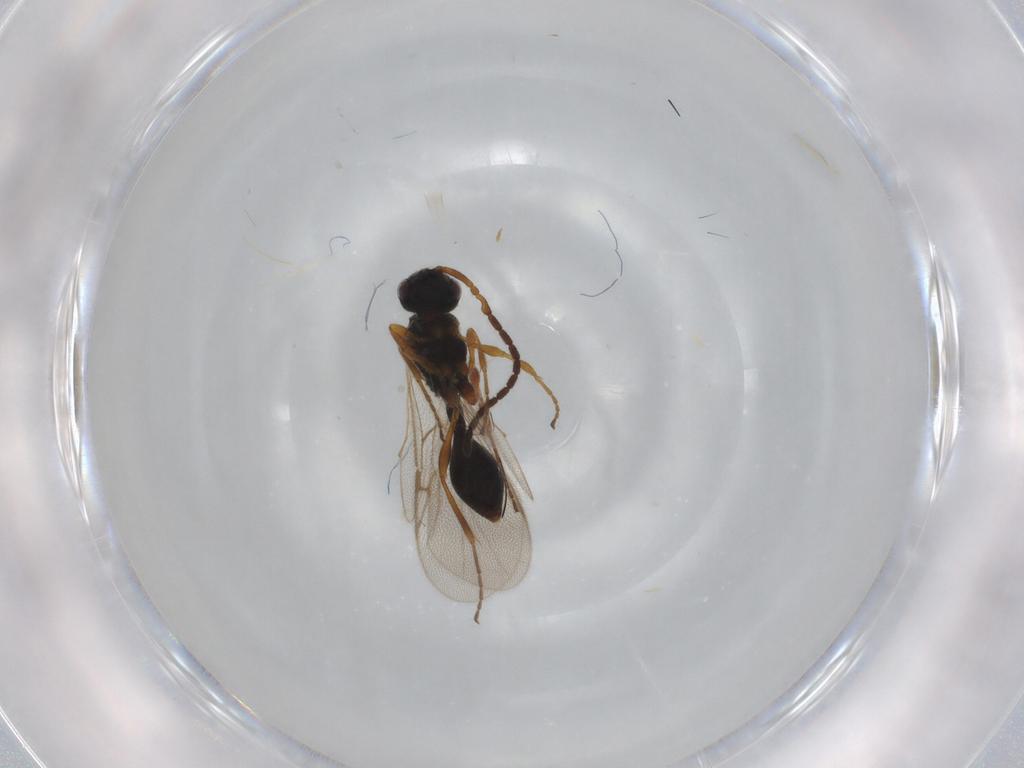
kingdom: Animalia
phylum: Arthropoda
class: Insecta
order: Hymenoptera
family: Diapriidae
